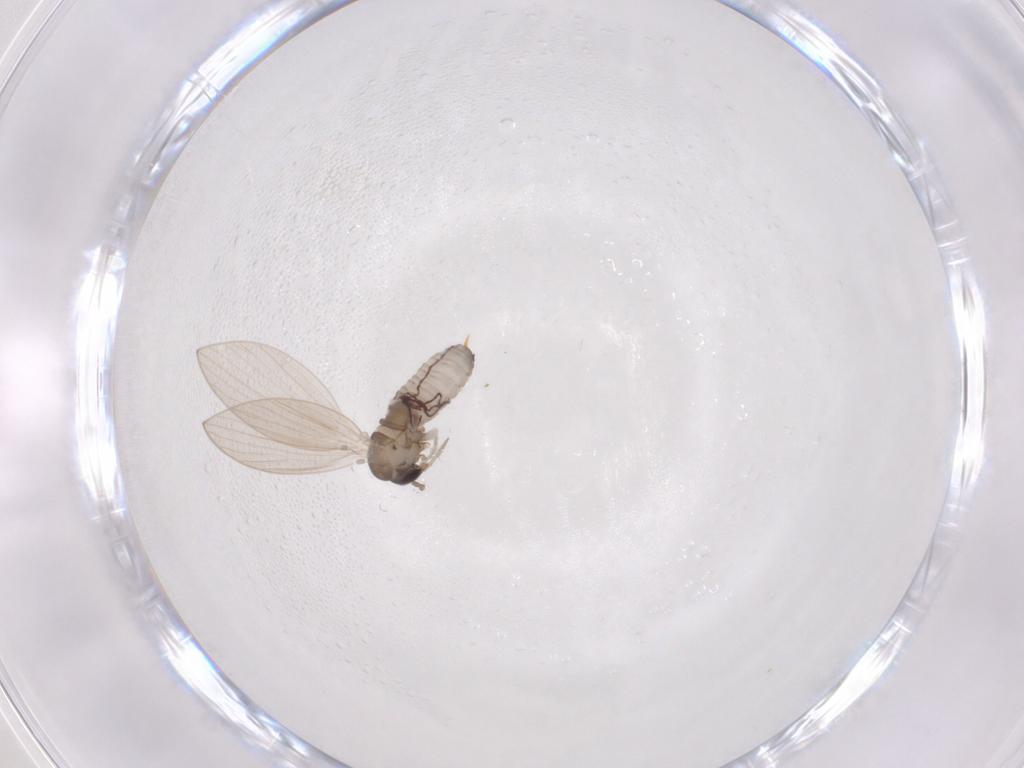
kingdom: Animalia
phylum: Arthropoda
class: Insecta
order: Diptera
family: Psychodidae
